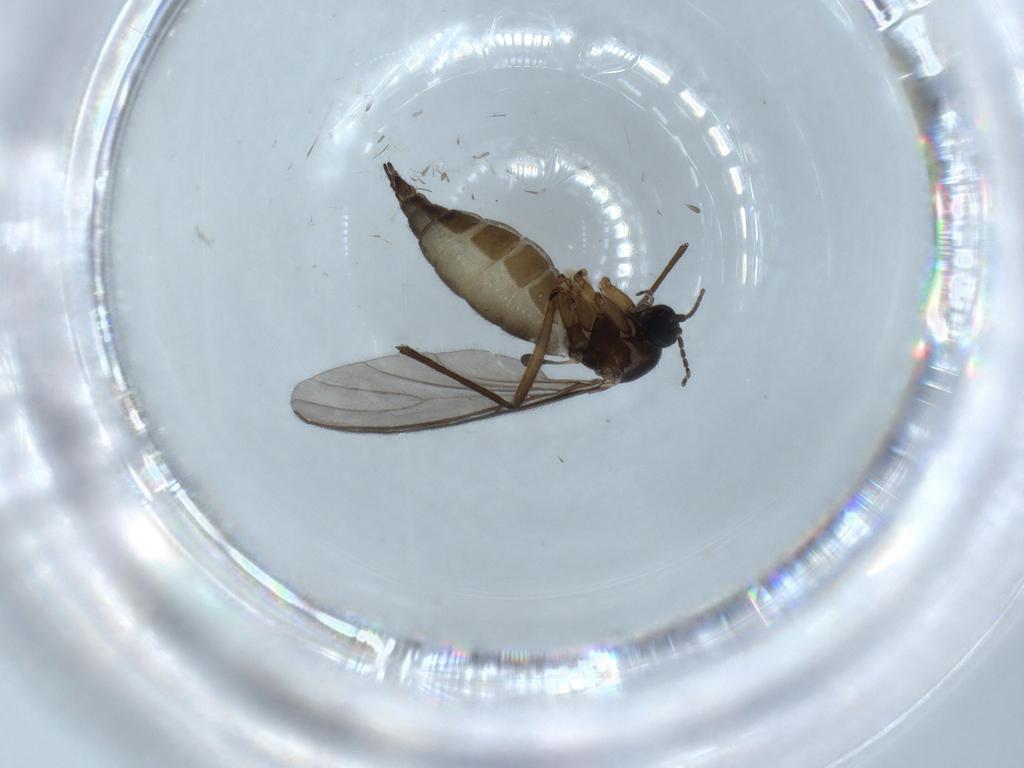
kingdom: Animalia
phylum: Arthropoda
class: Insecta
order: Diptera
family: Sciaridae
